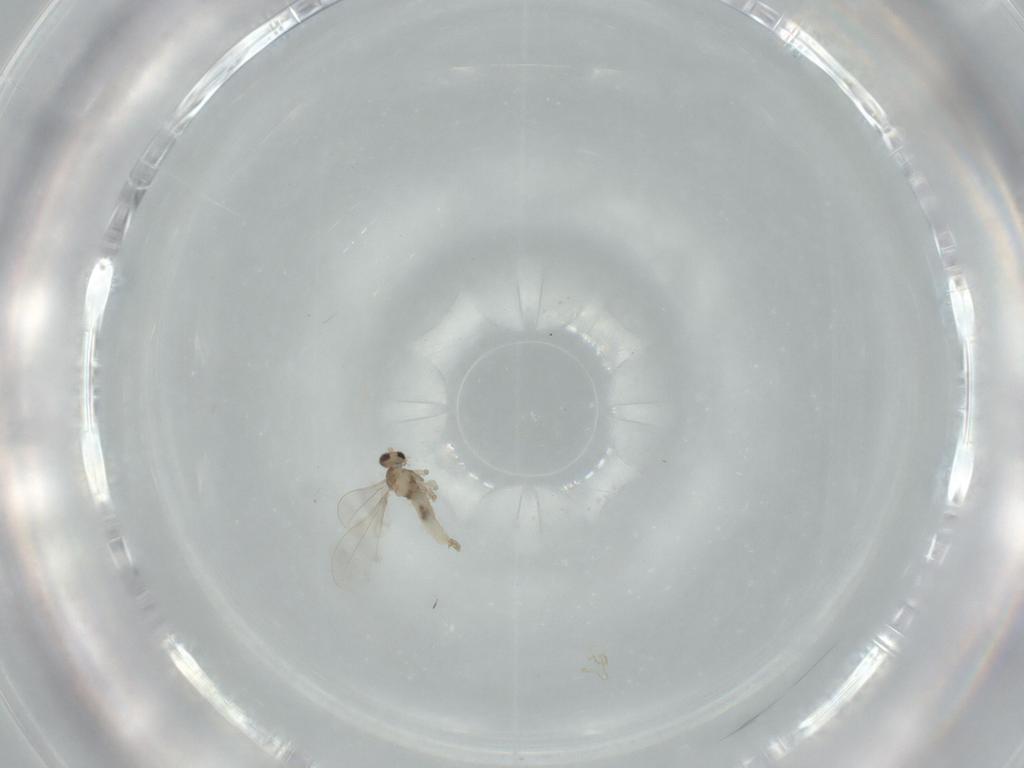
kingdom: Animalia
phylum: Arthropoda
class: Insecta
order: Diptera
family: Cecidomyiidae
